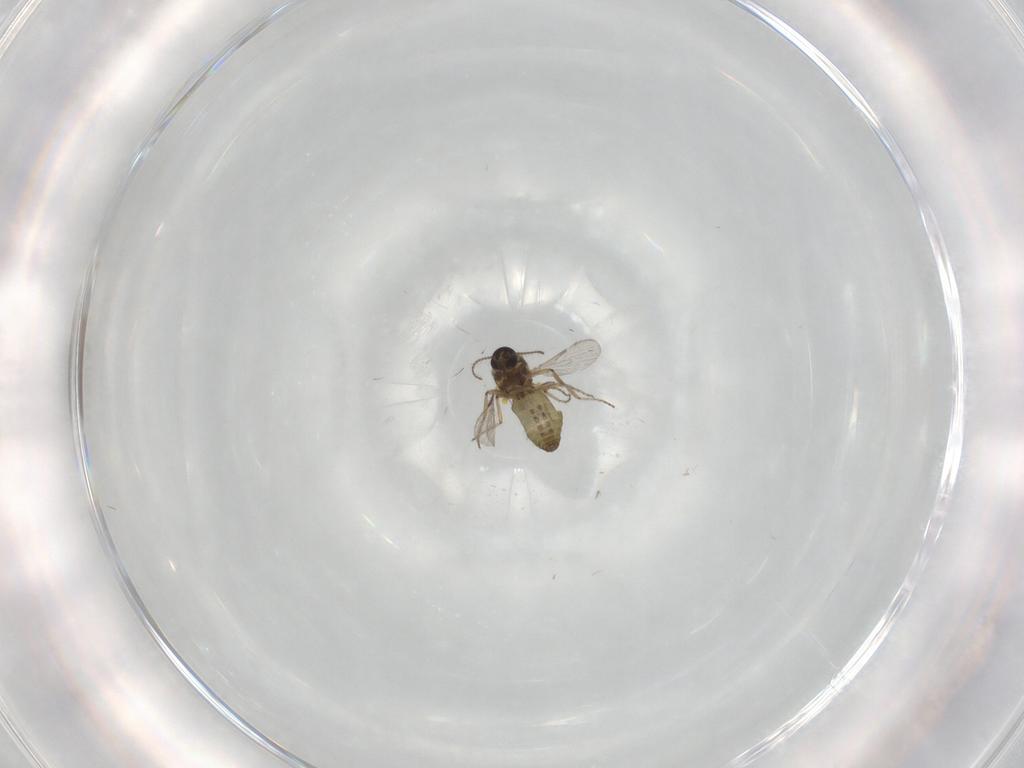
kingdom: Animalia
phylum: Arthropoda
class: Insecta
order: Diptera
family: Ceratopogonidae
